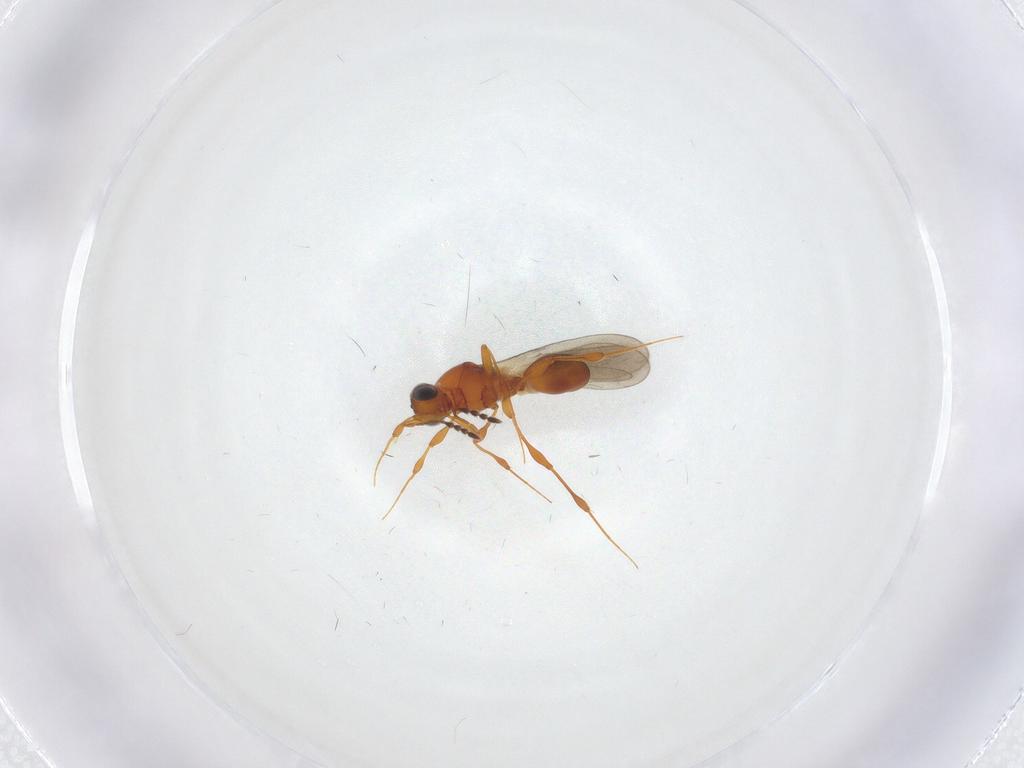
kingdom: Animalia
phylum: Arthropoda
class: Insecta
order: Hymenoptera
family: Platygastridae
